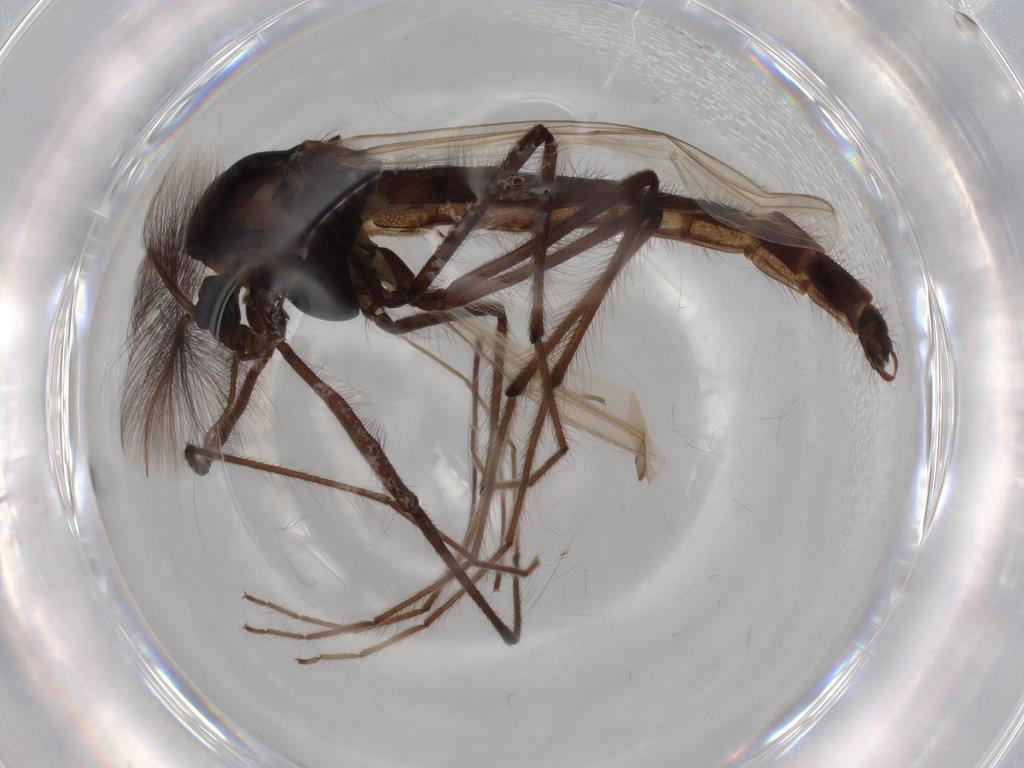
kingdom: Animalia
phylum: Arthropoda
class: Insecta
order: Diptera
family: Chironomidae
